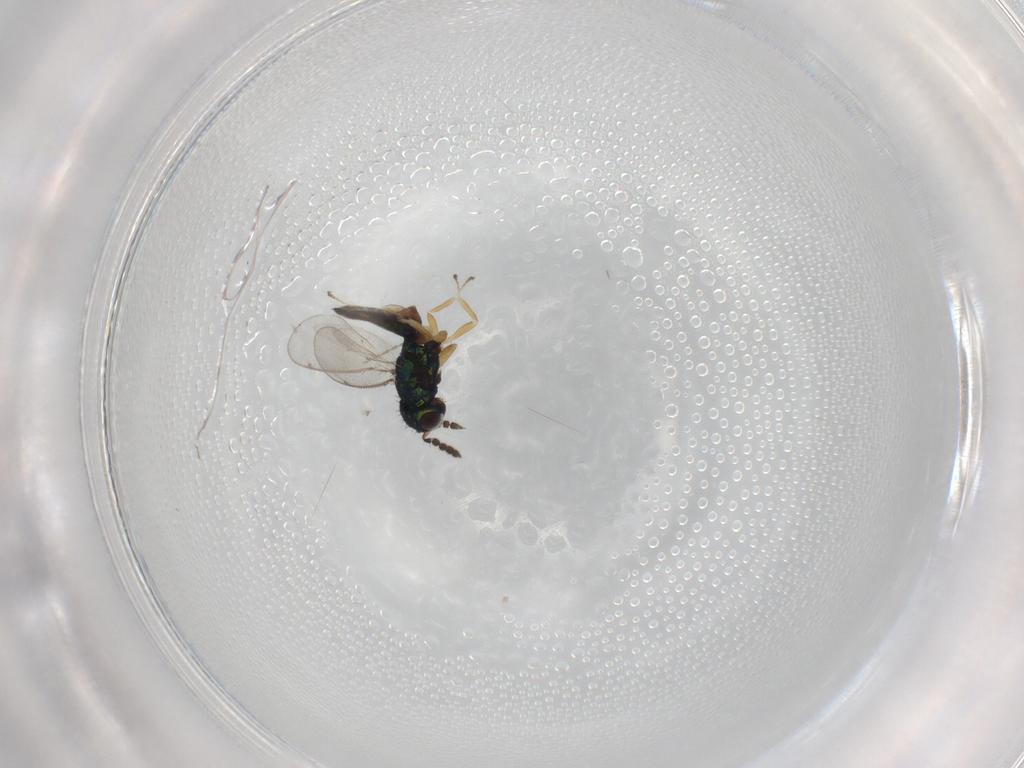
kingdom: Animalia
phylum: Arthropoda
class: Insecta
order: Hymenoptera
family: Eulophidae
